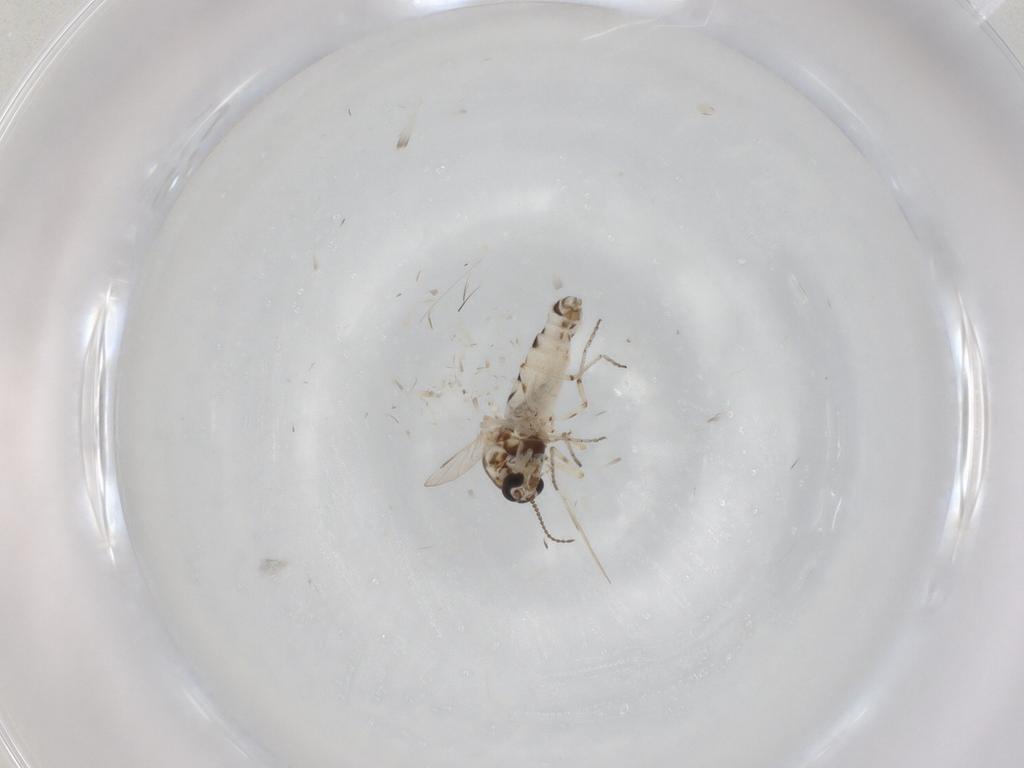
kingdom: Animalia
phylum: Arthropoda
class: Insecta
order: Diptera
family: Ceratopogonidae
